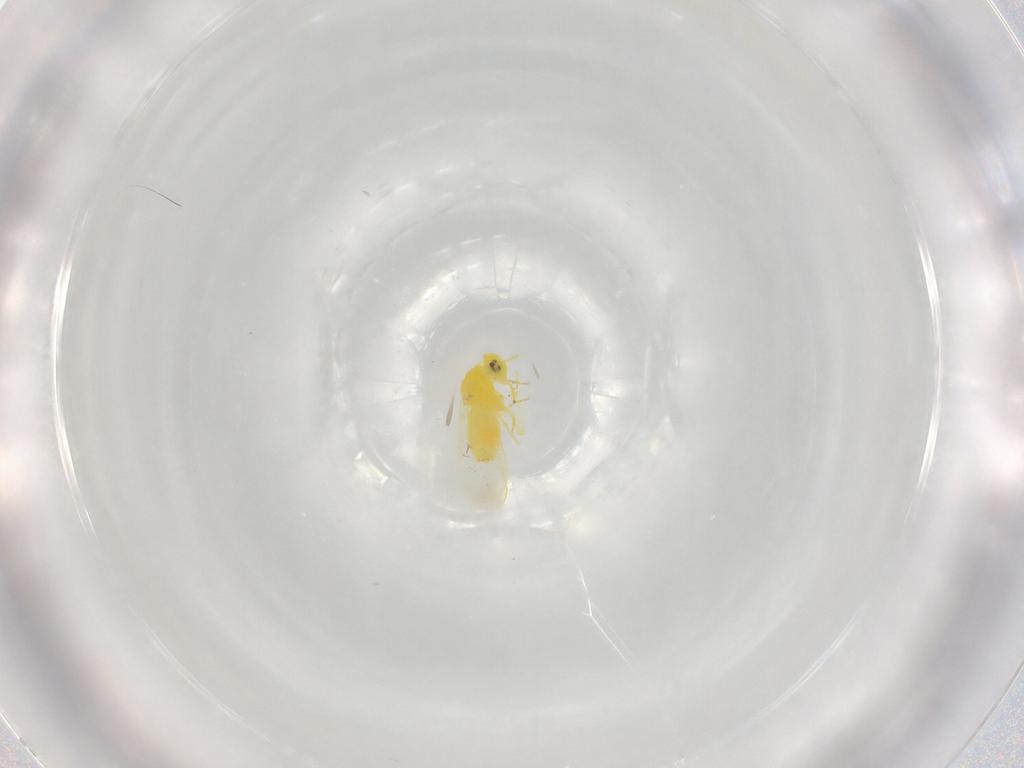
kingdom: Animalia
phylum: Arthropoda
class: Insecta
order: Hemiptera
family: Aleyrodidae
